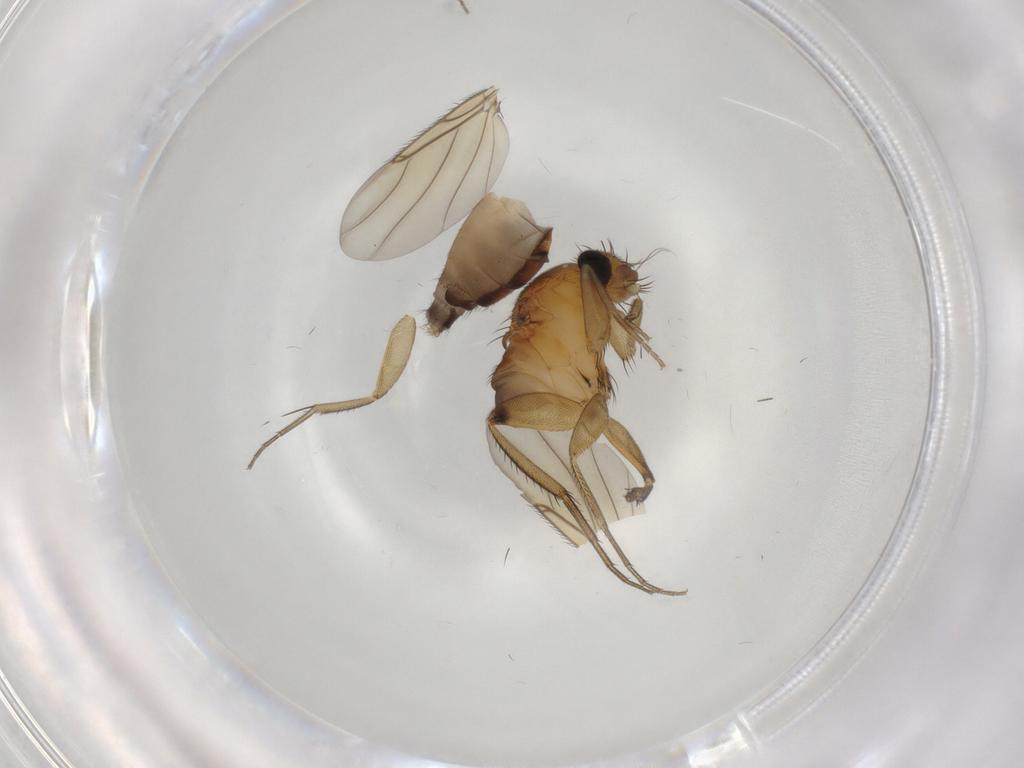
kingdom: Animalia
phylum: Arthropoda
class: Insecta
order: Diptera
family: Phoridae
